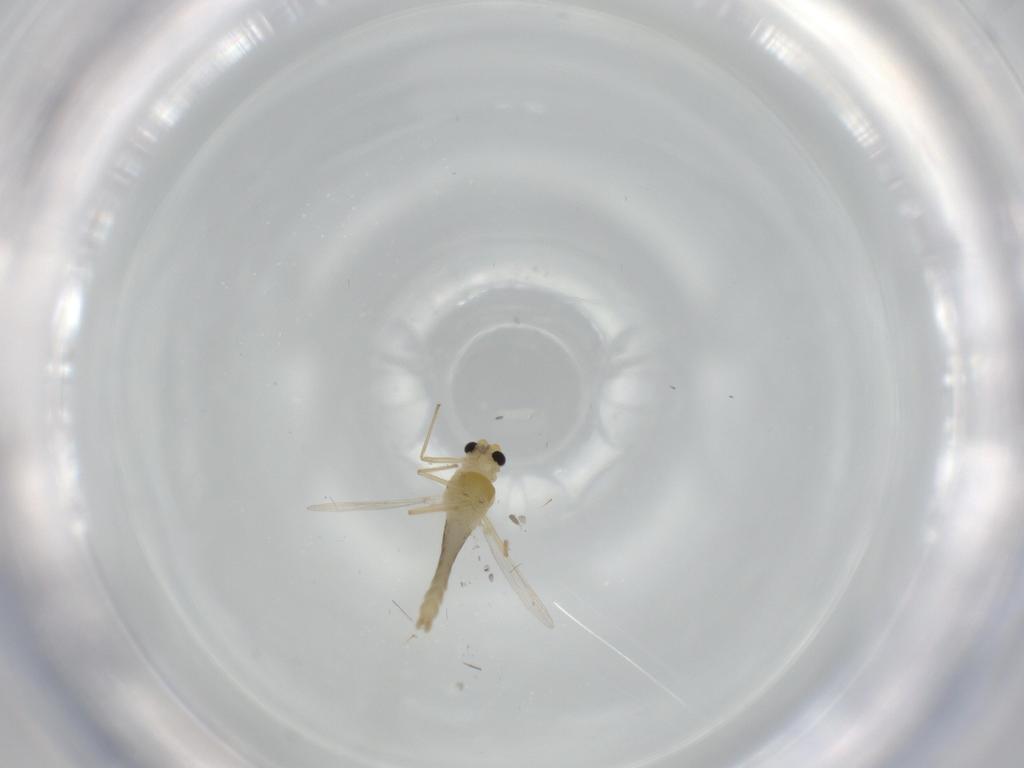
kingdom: Animalia
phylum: Arthropoda
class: Insecta
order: Diptera
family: Chironomidae
